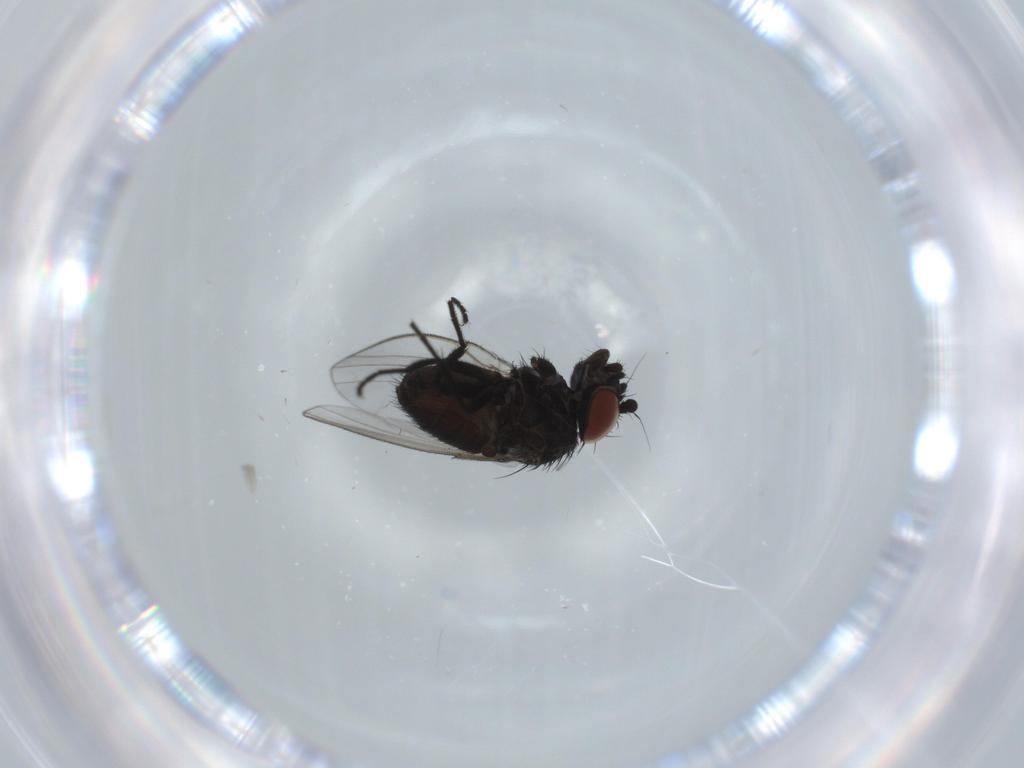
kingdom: Animalia
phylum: Arthropoda
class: Insecta
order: Diptera
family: Milichiidae
